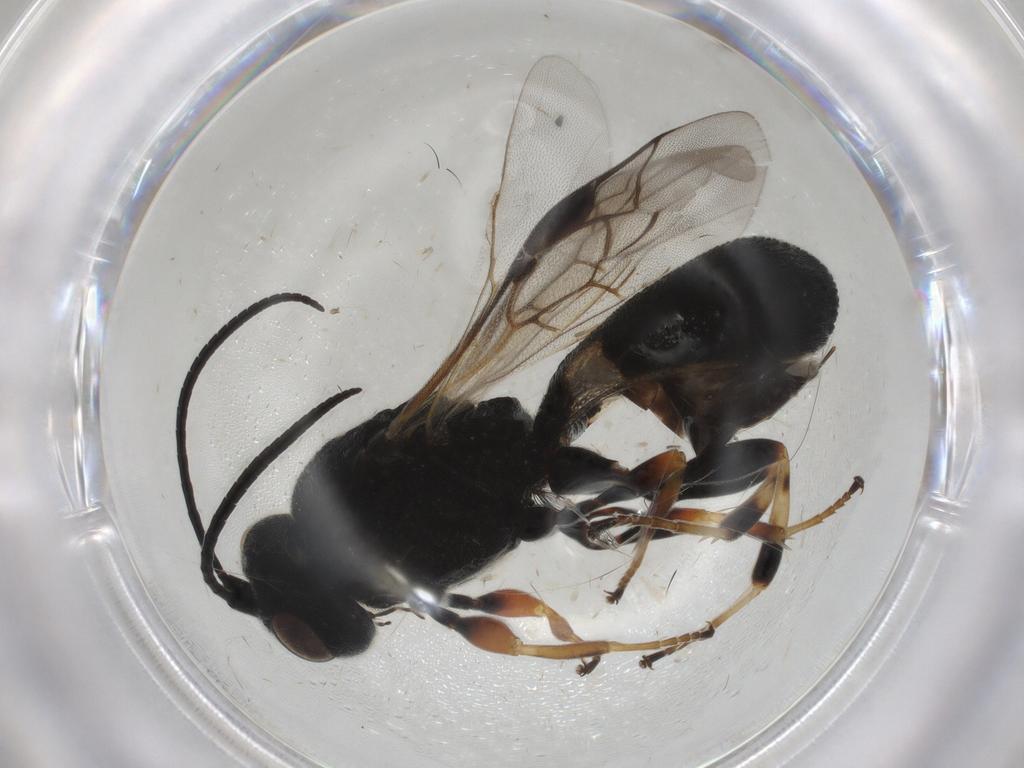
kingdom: Animalia
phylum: Arthropoda
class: Insecta
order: Hymenoptera
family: Braconidae
